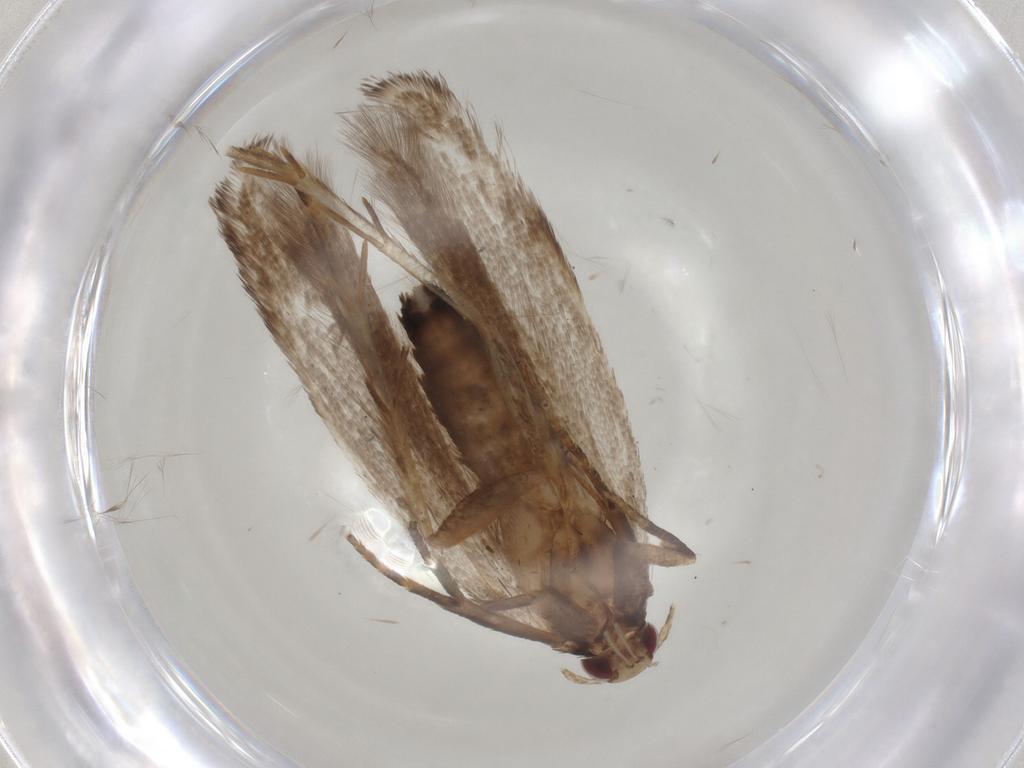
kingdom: Animalia
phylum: Arthropoda
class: Insecta
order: Lepidoptera
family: Gelechiidae
